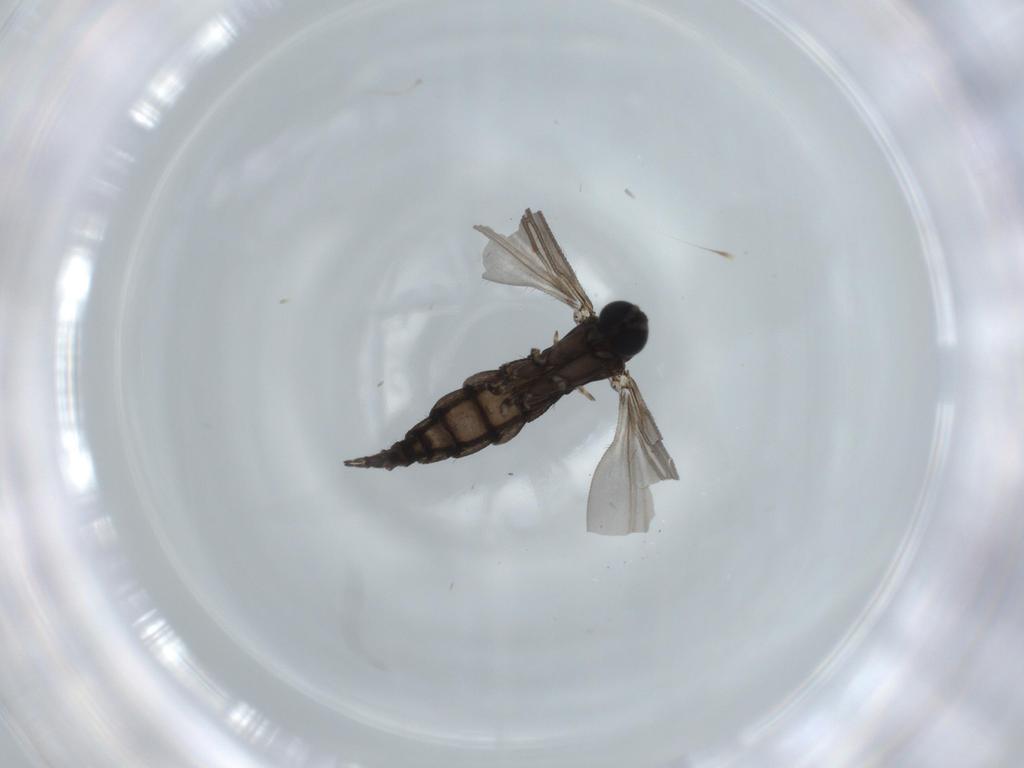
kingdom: Animalia
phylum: Arthropoda
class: Insecta
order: Diptera
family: Sciaridae
